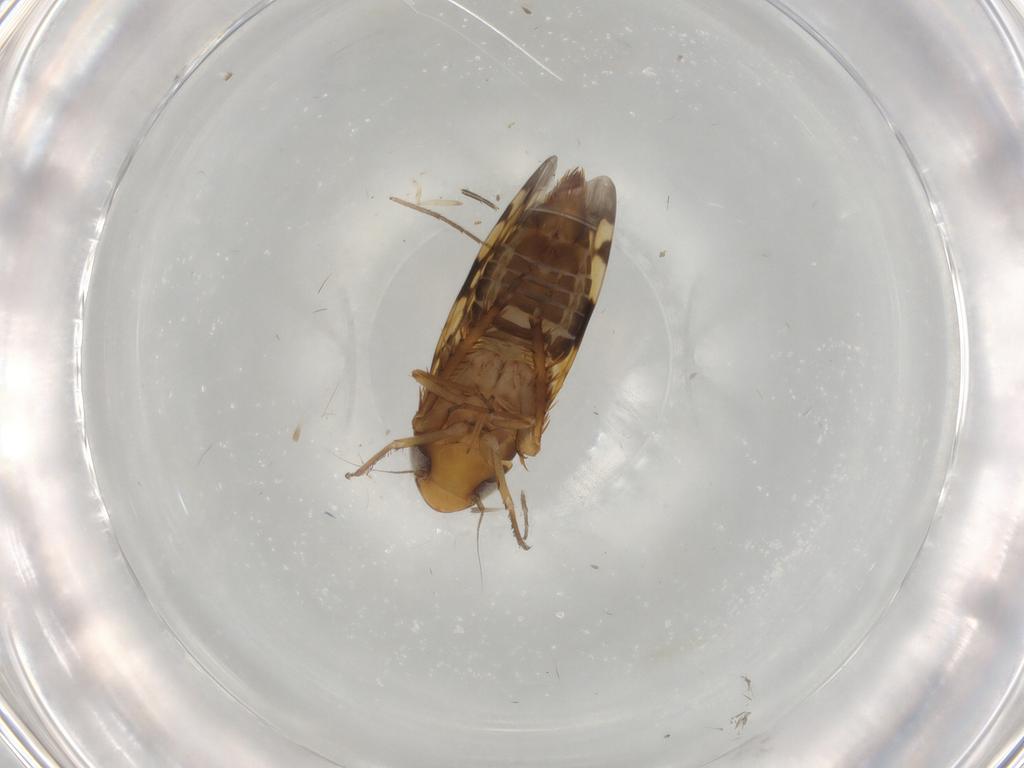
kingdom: Animalia
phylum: Arthropoda
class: Insecta
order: Hemiptera
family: Cicadellidae
